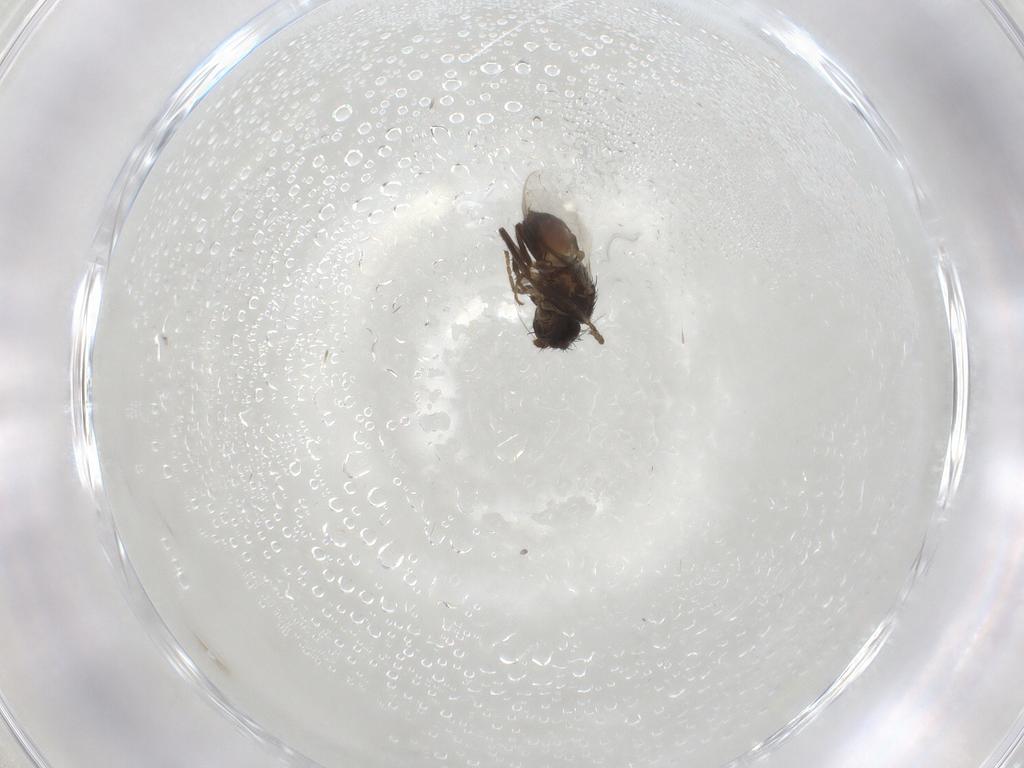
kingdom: Animalia
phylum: Arthropoda
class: Insecta
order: Diptera
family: Sphaeroceridae
